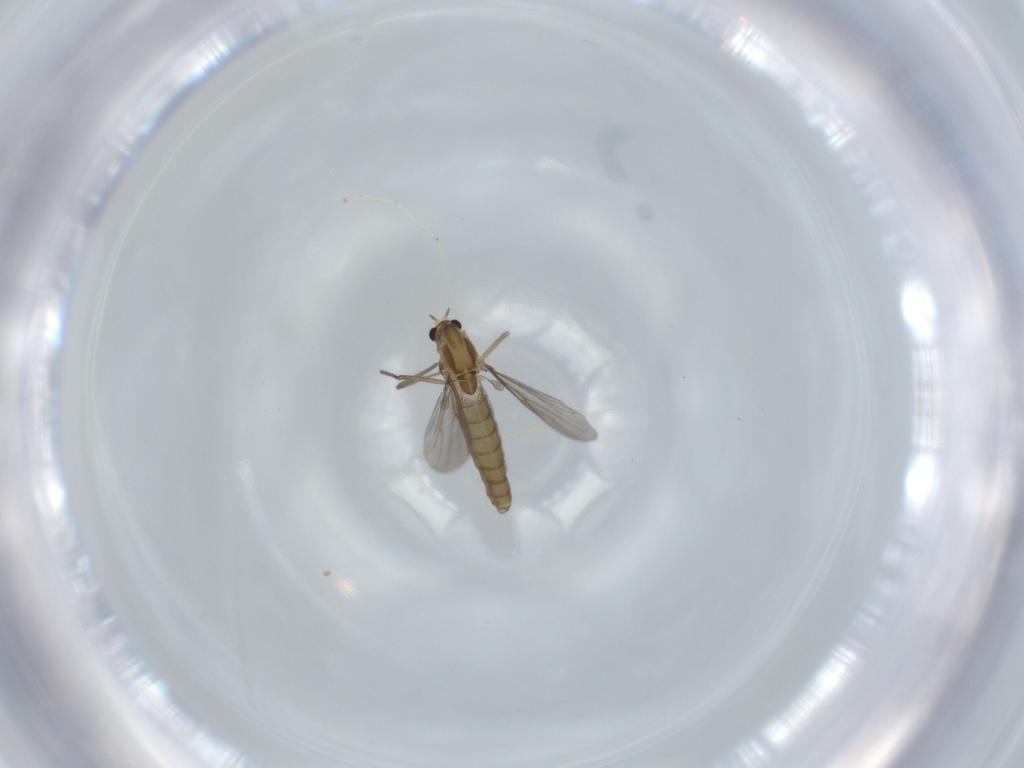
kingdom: Animalia
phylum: Arthropoda
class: Insecta
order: Diptera
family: Chironomidae
